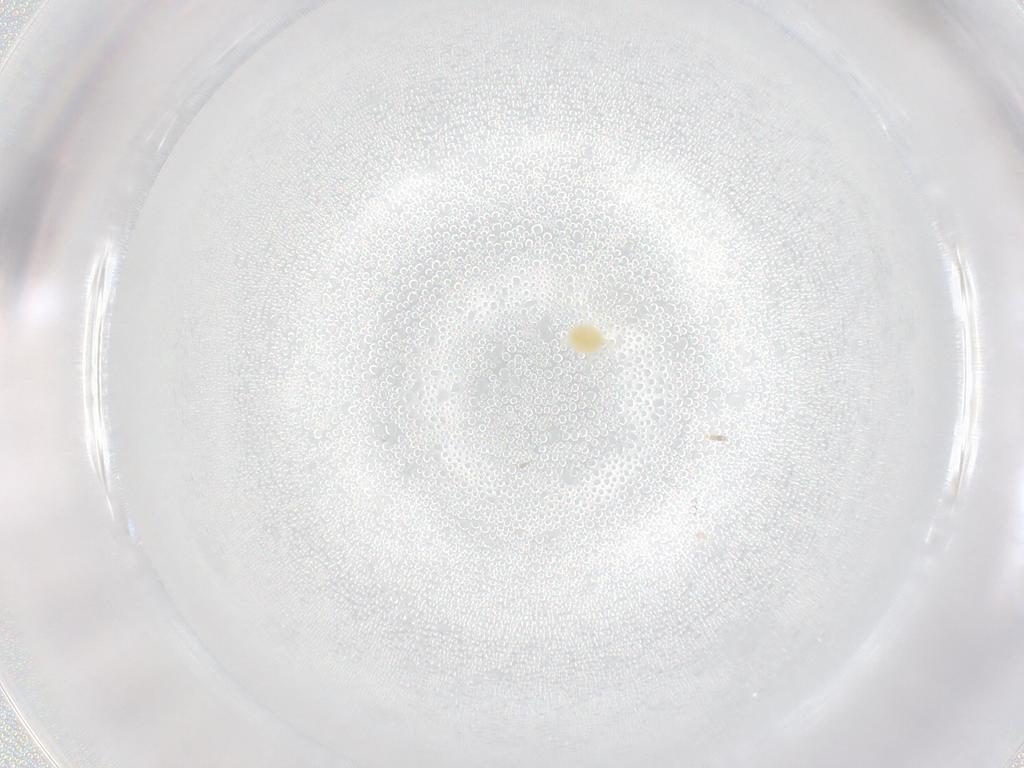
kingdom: Animalia
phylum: Arthropoda
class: Arachnida
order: Trombidiformes
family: Tetranychidae
